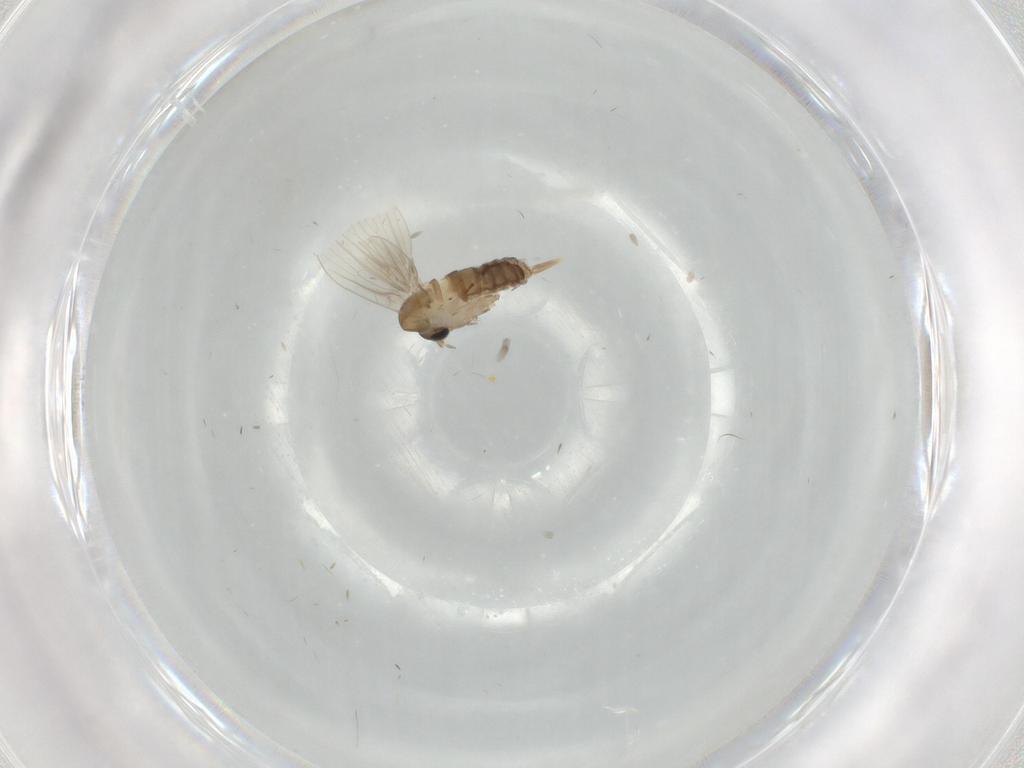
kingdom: Animalia
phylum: Arthropoda
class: Insecta
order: Diptera
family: Psychodidae
